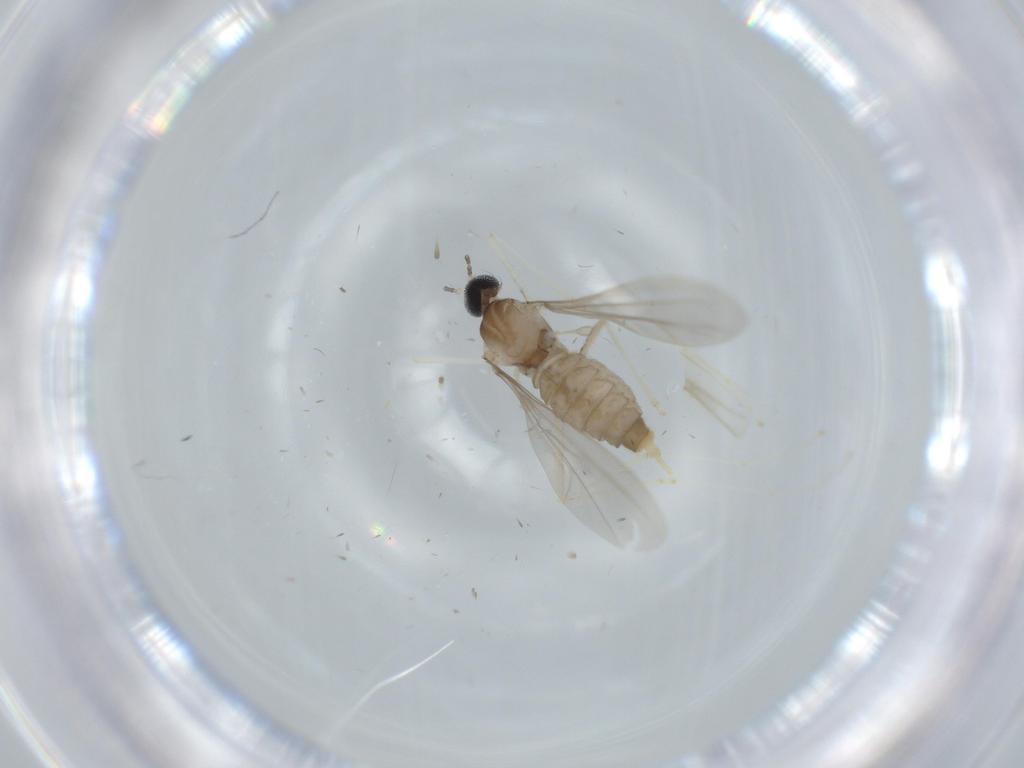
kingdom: Animalia
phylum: Arthropoda
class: Insecta
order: Diptera
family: Cecidomyiidae
